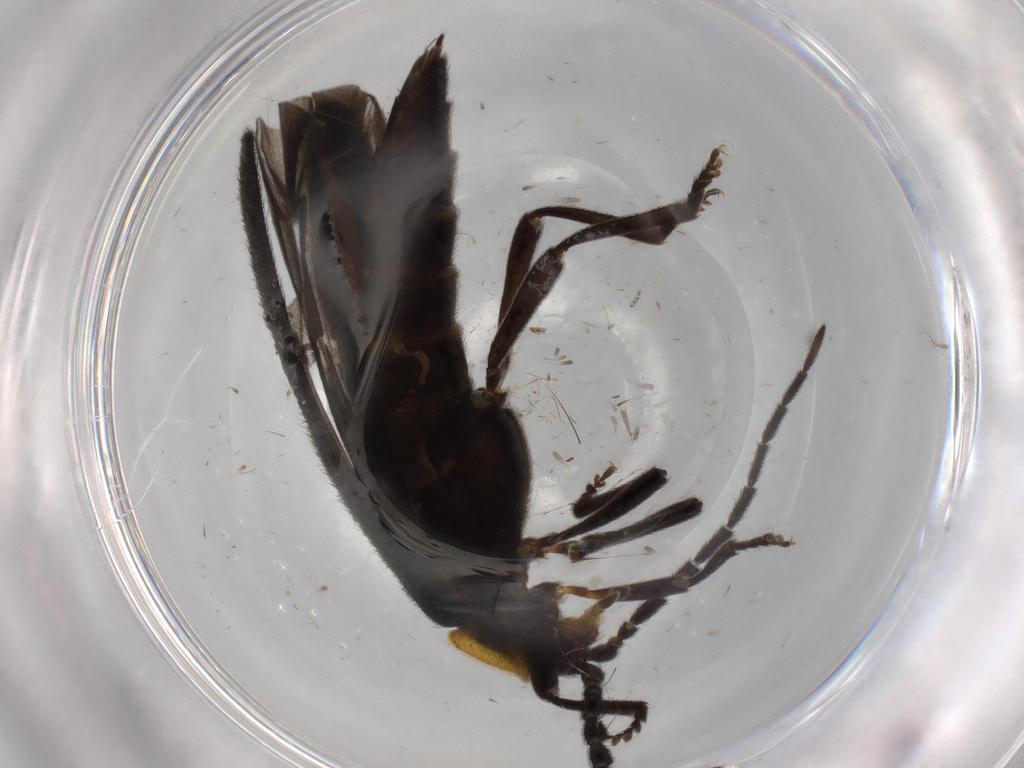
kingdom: Animalia
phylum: Arthropoda
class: Insecta
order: Coleoptera
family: Lycidae
